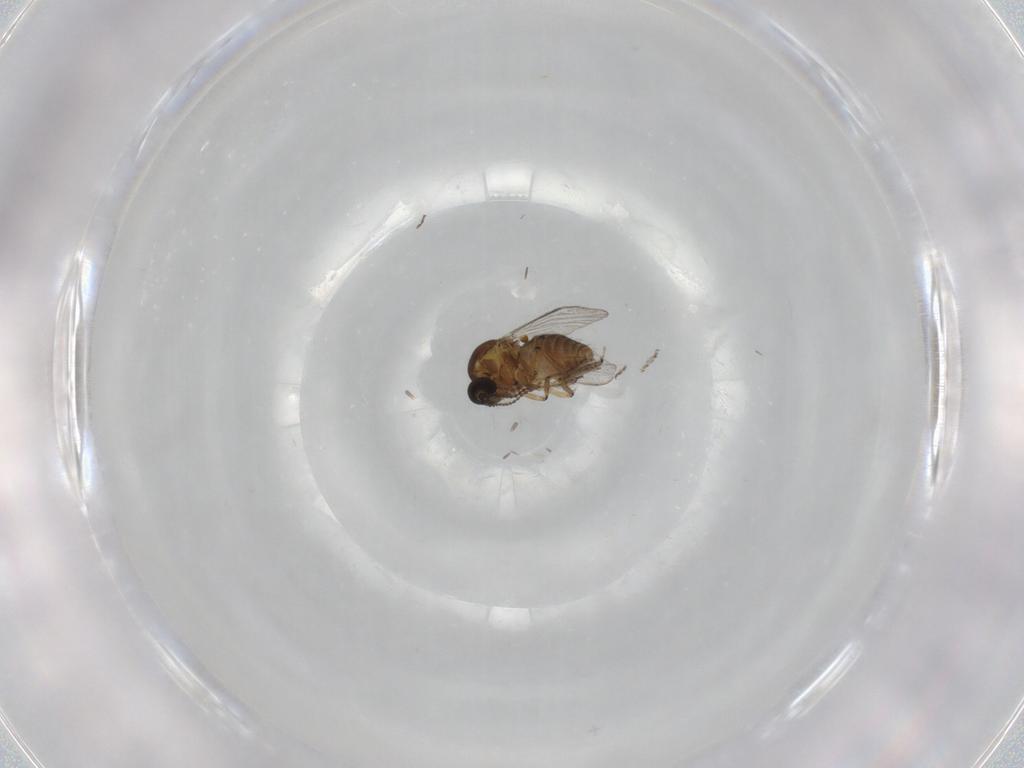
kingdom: Animalia
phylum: Arthropoda
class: Insecta
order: Diptera
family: Ceratopogonidae
